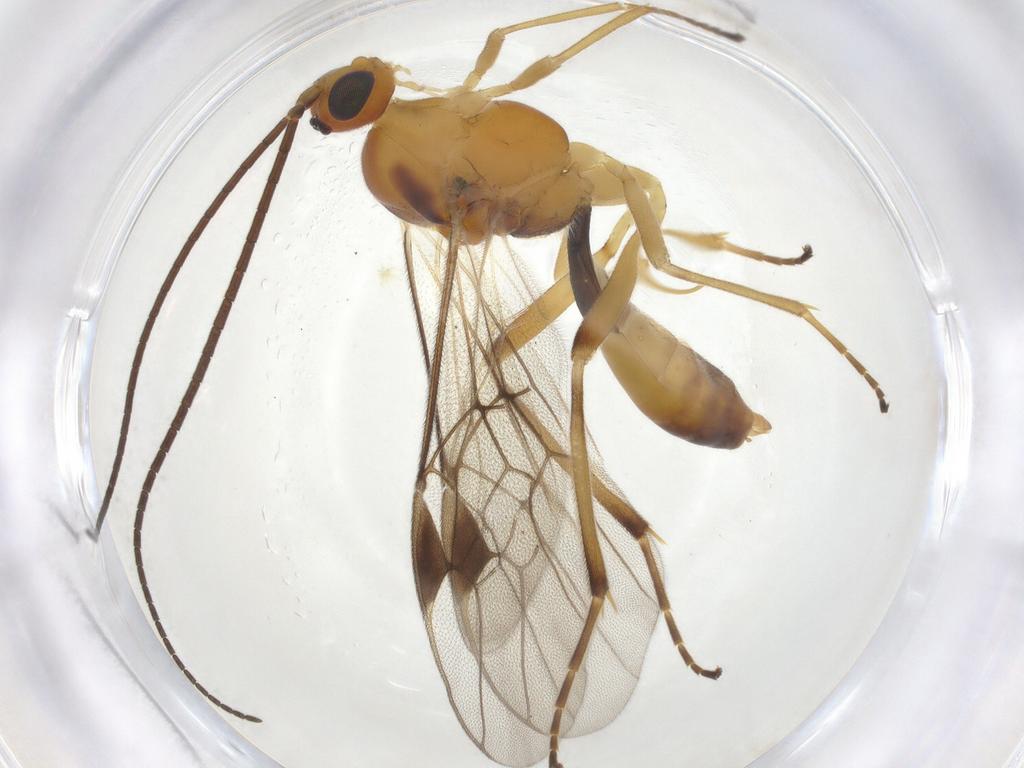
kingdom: Animalia
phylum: Arthropoda
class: Insecta
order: Hymenoptera
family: Braconidae
